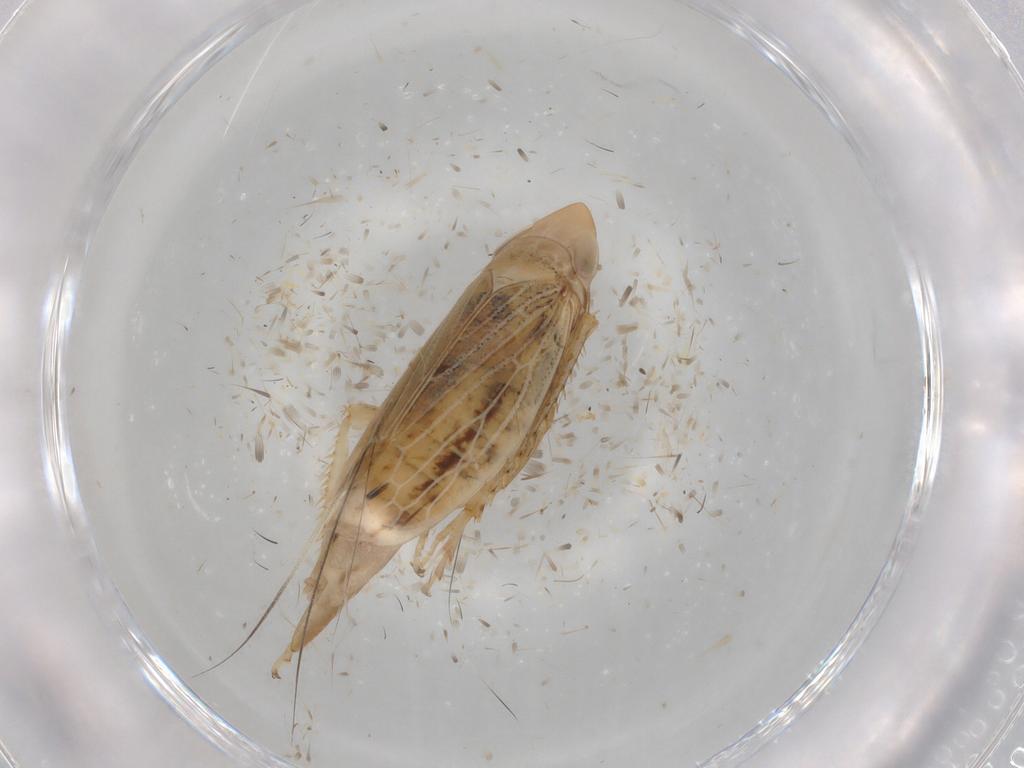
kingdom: Animalia
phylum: Arthropoda
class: Insecta
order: Hemiptera
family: Cicadellidae
